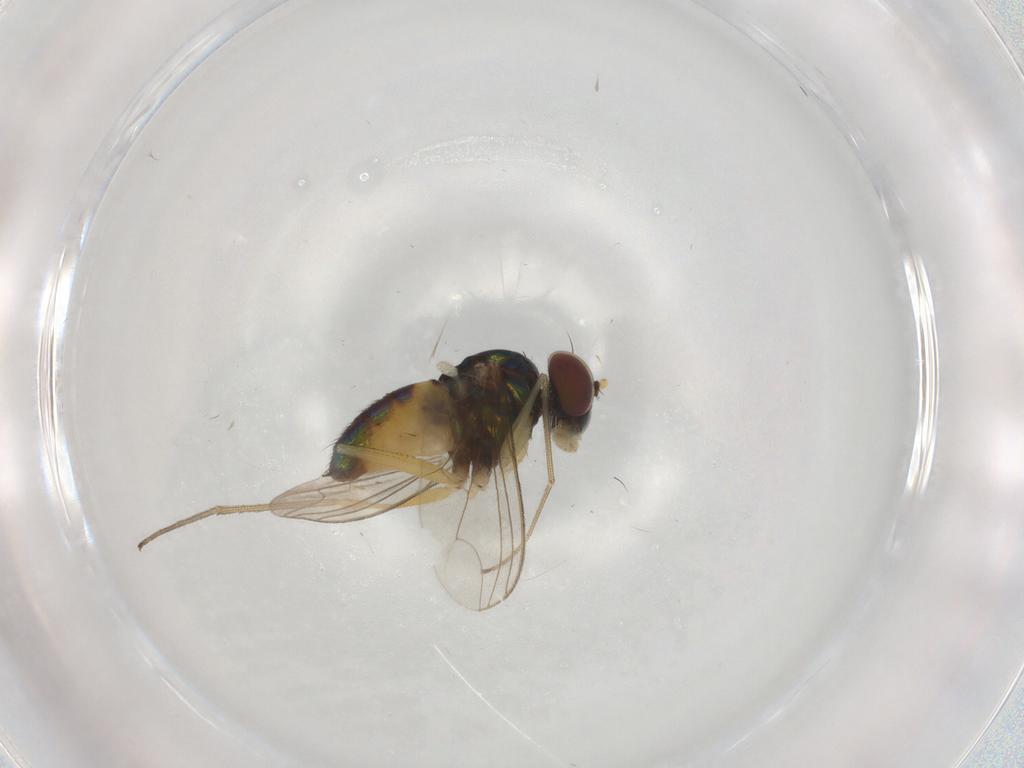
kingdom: Animalia
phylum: Arthropoda
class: Insecta
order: Diptera
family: Dolichopodidae
